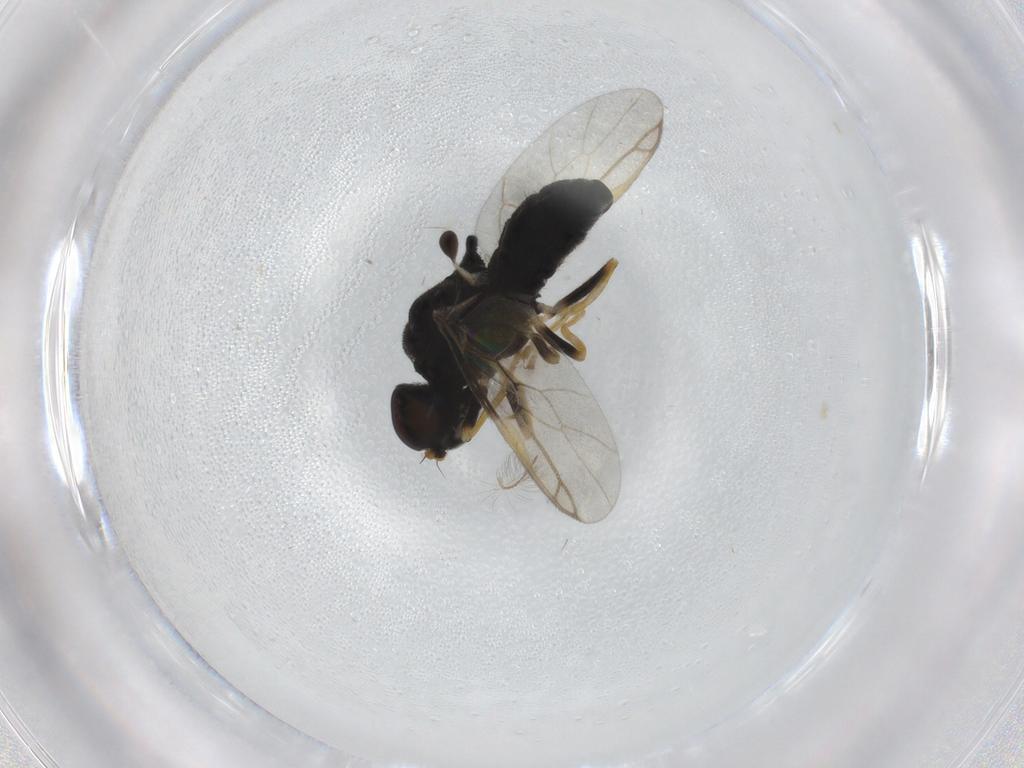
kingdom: Animalia
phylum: Arthropoda
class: Insecta
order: Diptera
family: Stratiomyidae
